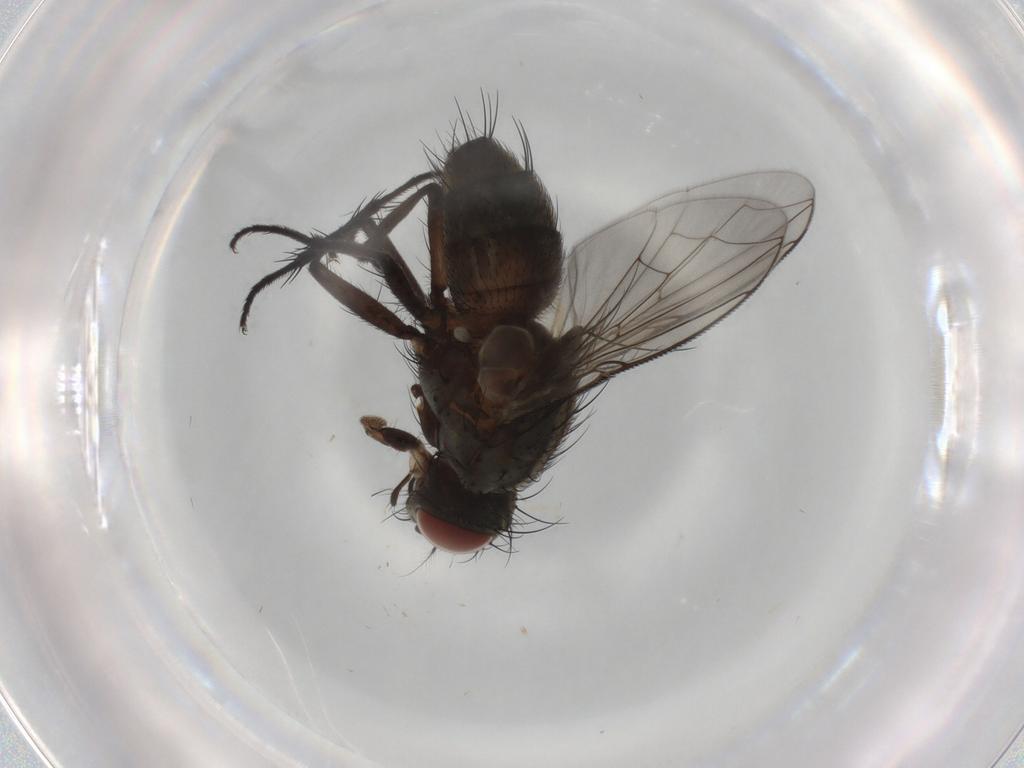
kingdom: Animalia
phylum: Arthropoda
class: Insecta
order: Diptera
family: Sarcophagidae
